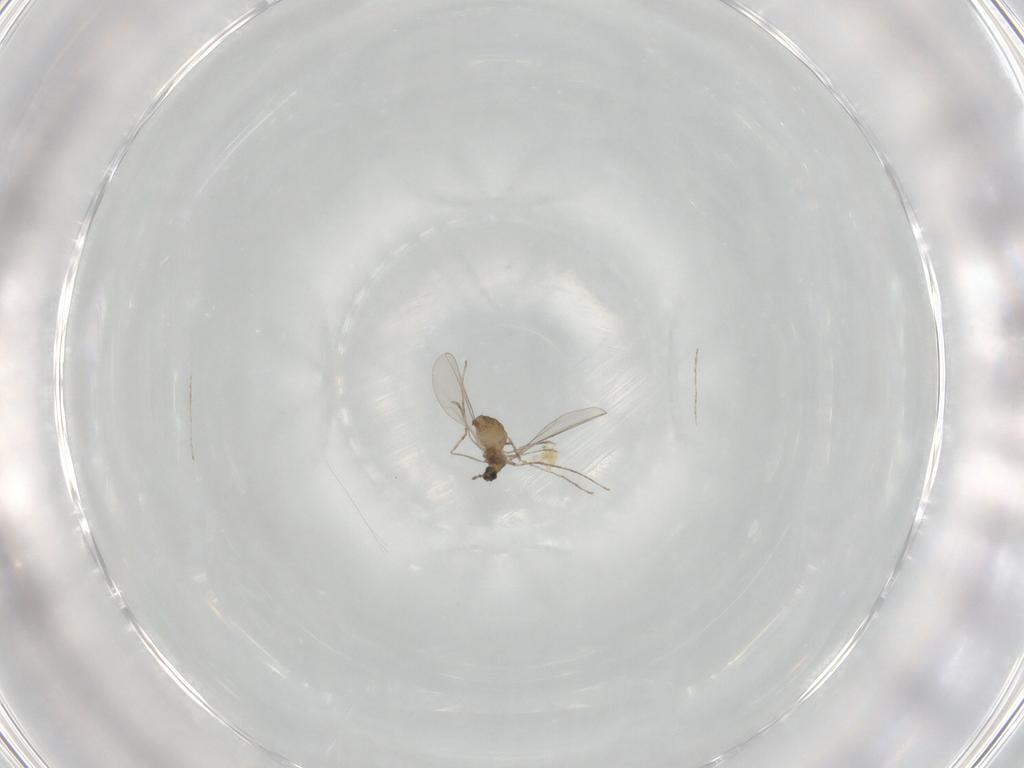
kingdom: Animalia
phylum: Arthropoda
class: Insecta
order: Diptera
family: Cecidomyiidae
